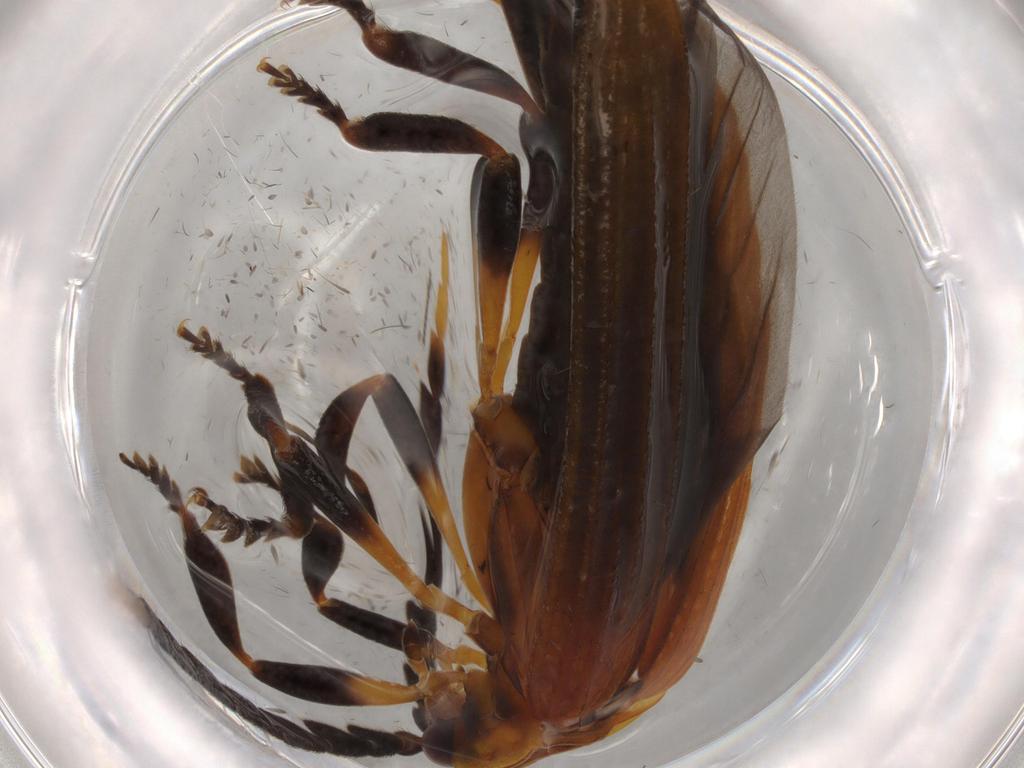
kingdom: Animalia
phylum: Arthropoda
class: Insecta
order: Coleoptera
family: Lycidae
